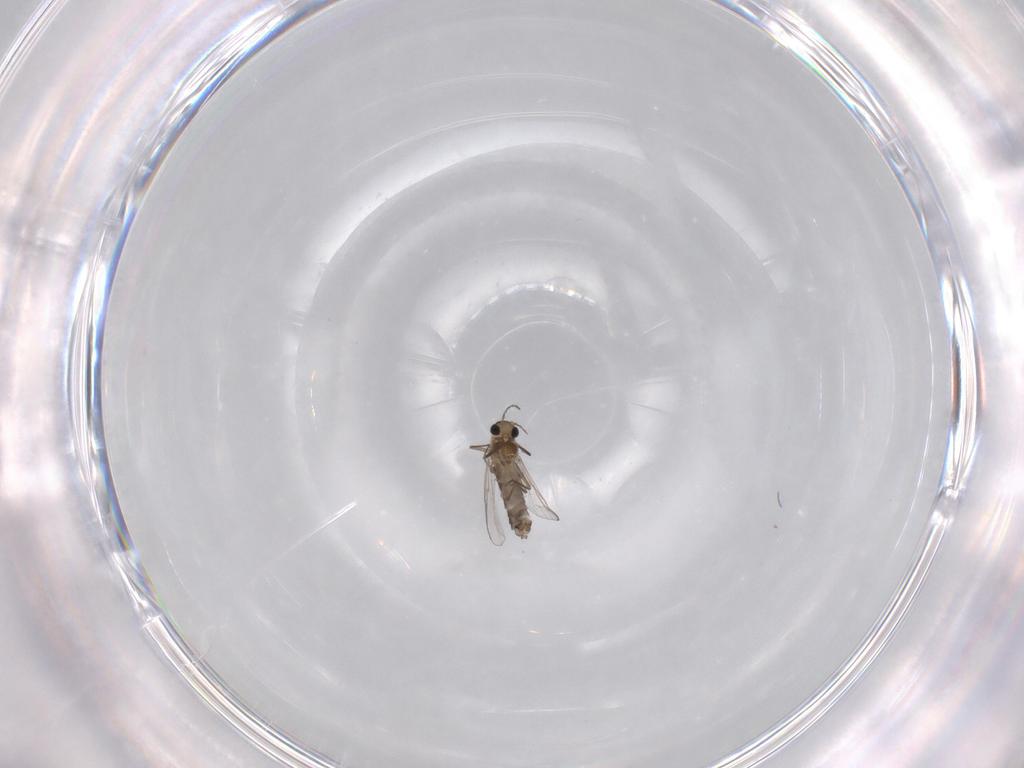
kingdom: Animalia
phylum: Arthropoda
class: Insecta
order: Diptera
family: Chironomidae
